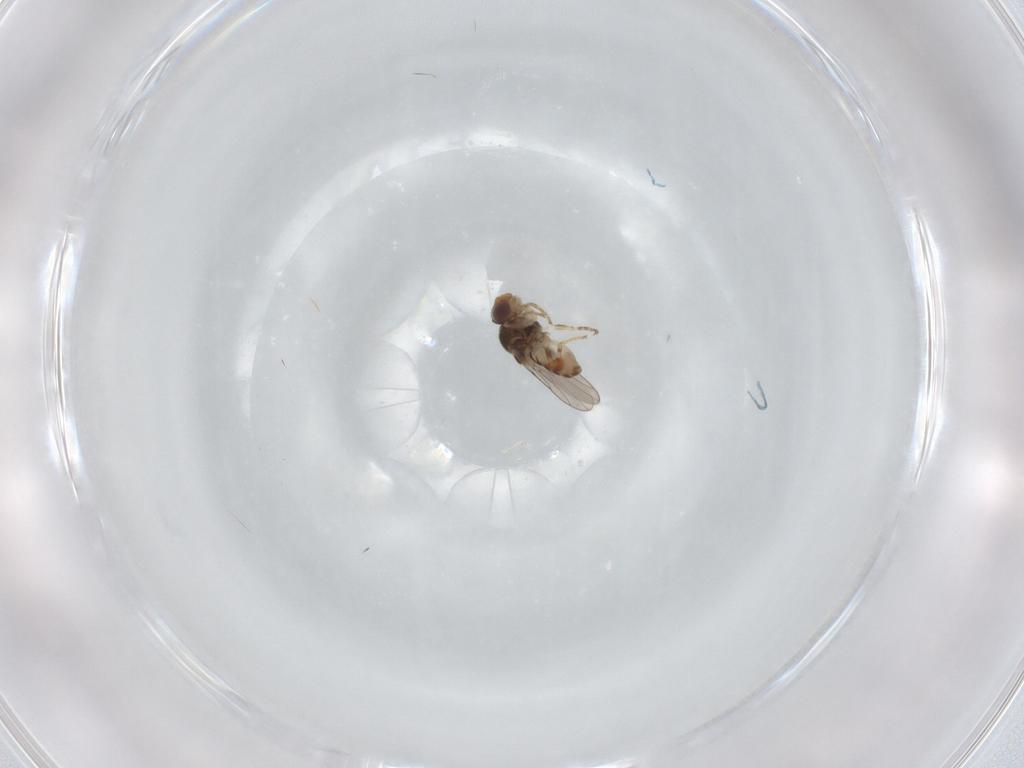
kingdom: Animalia
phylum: Arthropoda
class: Insecta
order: Diptera
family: Chloropidae
